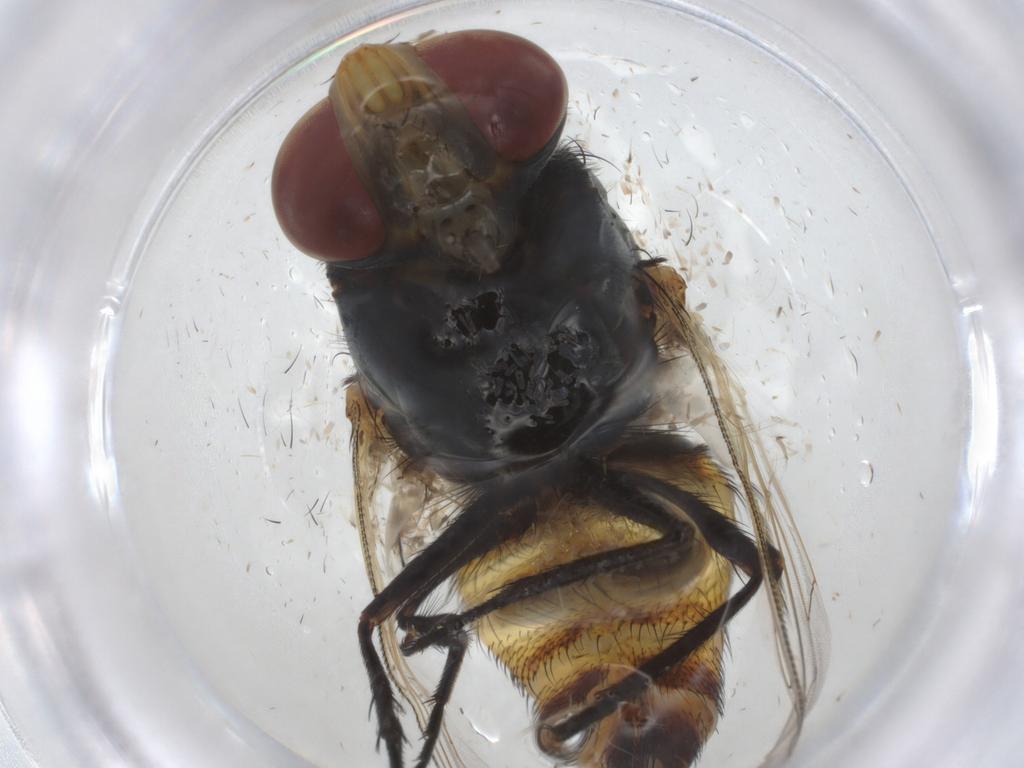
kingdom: Animalia
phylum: Arthropoda
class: Insecta
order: Diptera
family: Sarcophagidae
